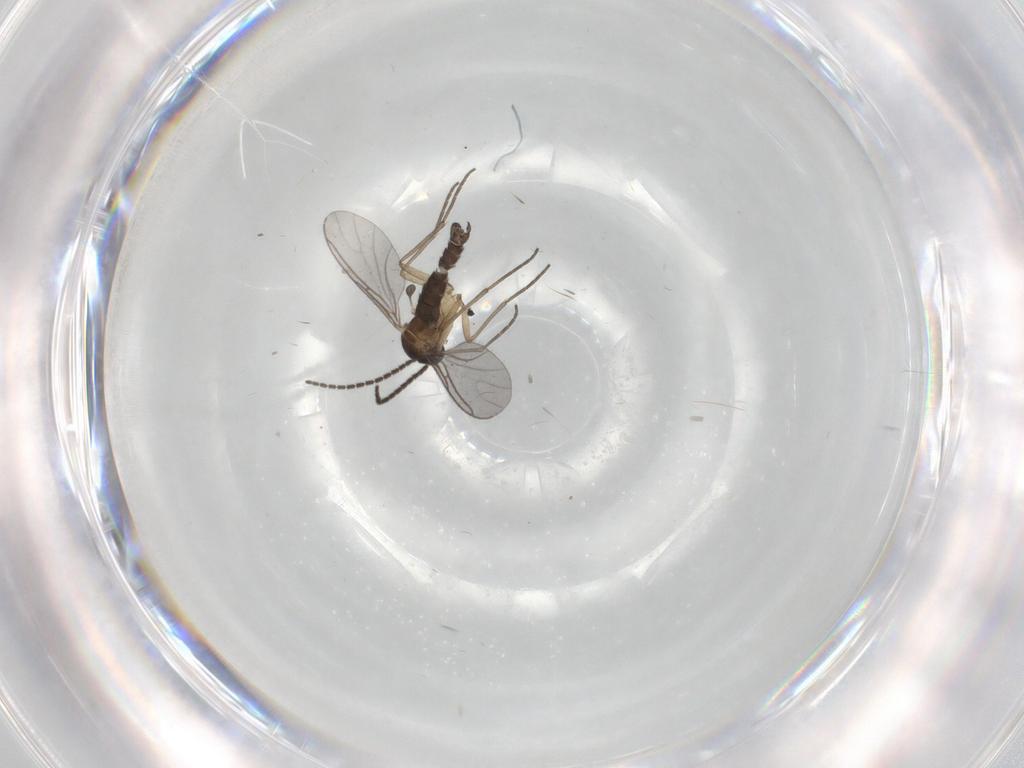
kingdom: Animalia
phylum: Arthropoda
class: Insecta
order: Diptera
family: Sciaridae
